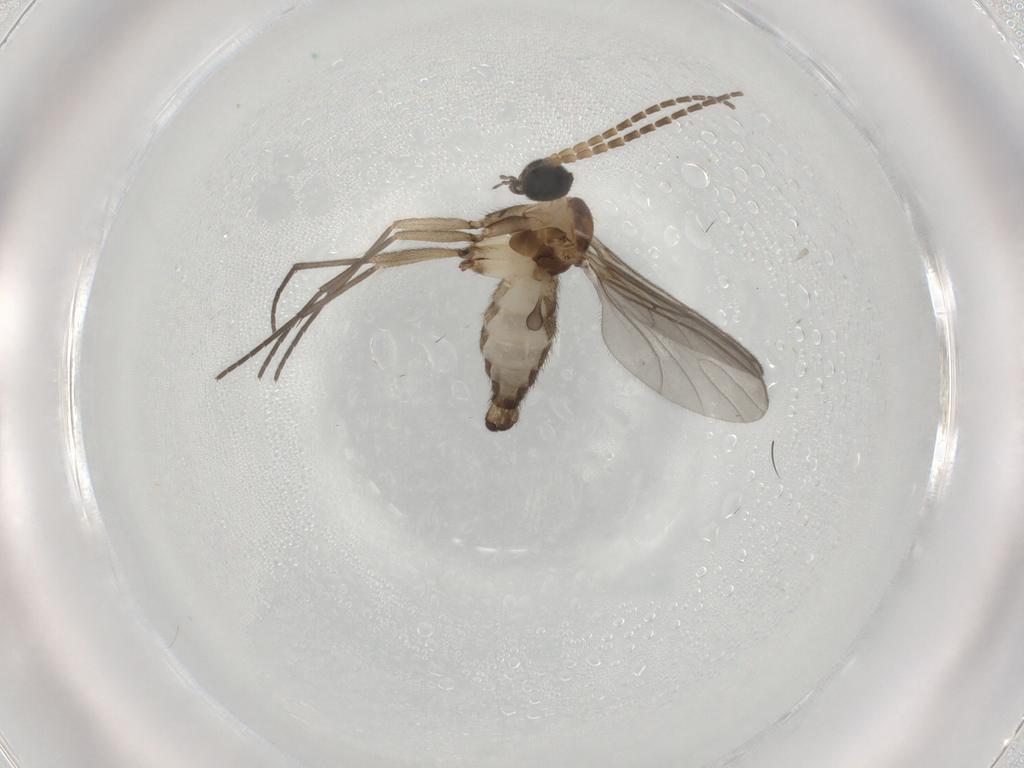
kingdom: Animalia
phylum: Arthropoda
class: Insecta
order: Diptera
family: Sciaridae
